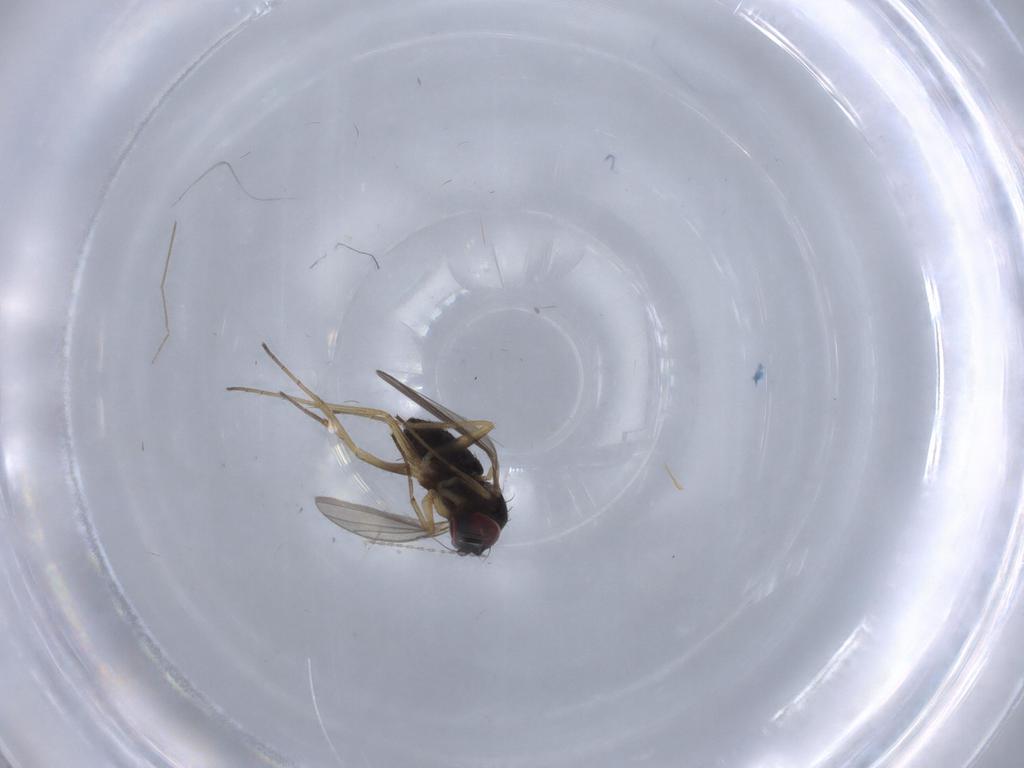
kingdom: Animalia
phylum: Arthropoda
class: Insecta
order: Diptera
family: Dolichopodidae
